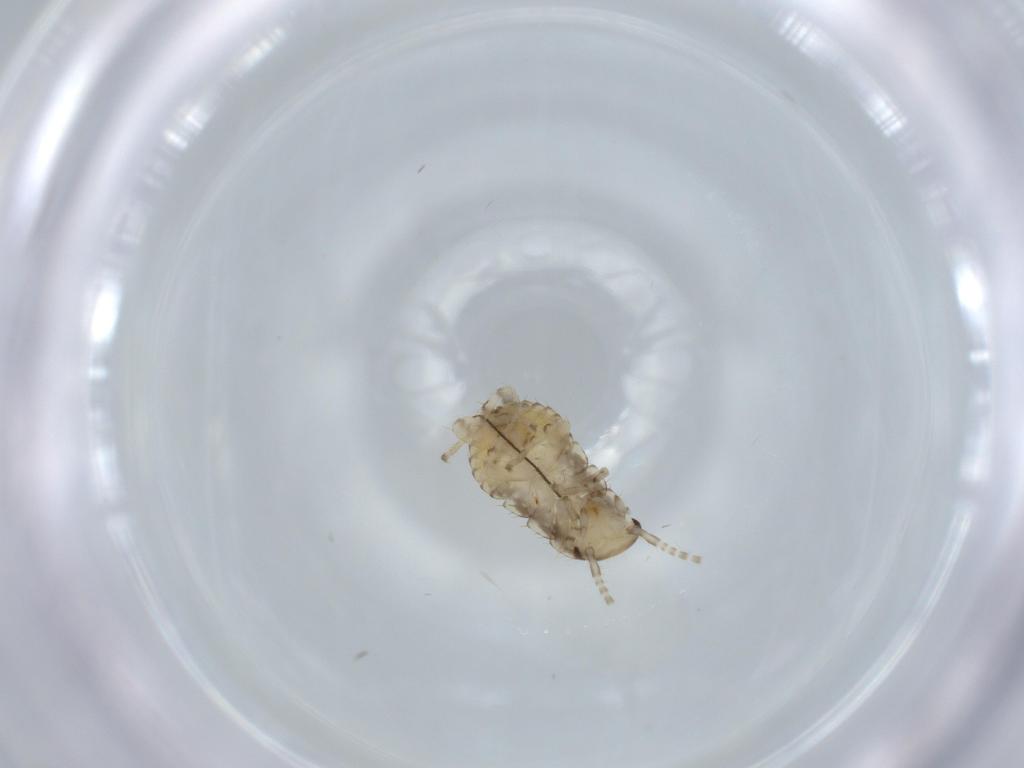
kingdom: Animalia
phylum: Arthropoda
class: Insecta
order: Blattodea
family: Ectobiidae
